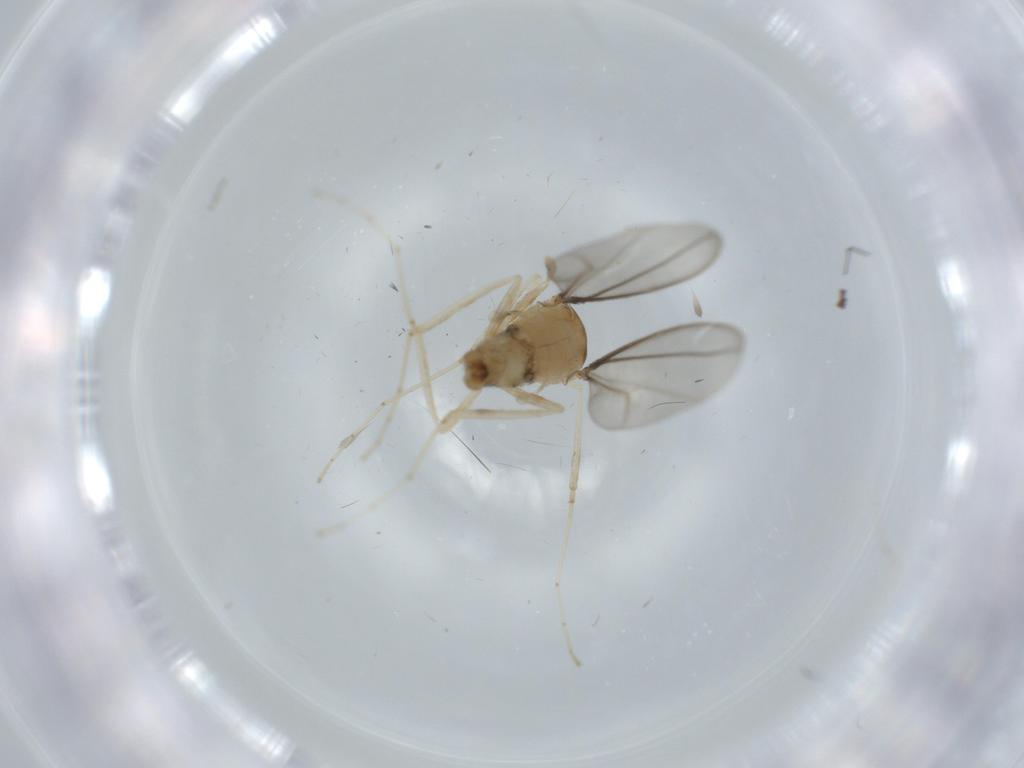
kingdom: Animalia
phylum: Arthropoda
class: Insecta
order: Diptera
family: Cecidomyiidae
